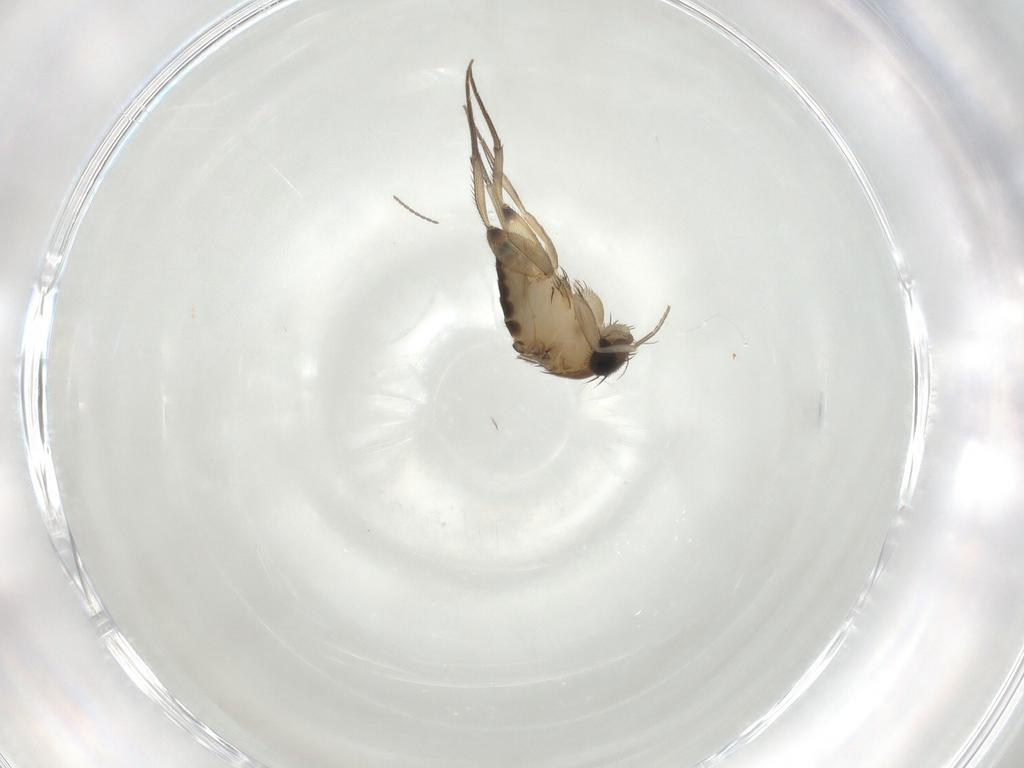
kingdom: Animalia
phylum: Arthropoda
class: Insecta
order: Diptera
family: Phoridae
